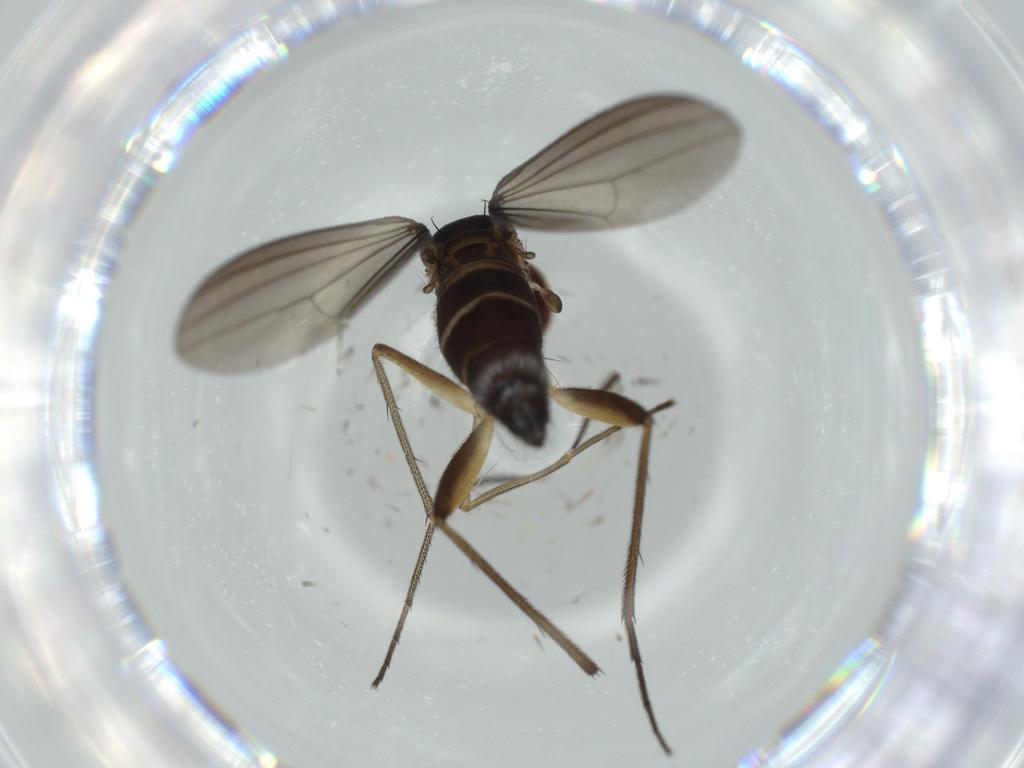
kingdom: Animalia
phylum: Arthropoda
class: Insecta
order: Diptera
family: Dolichopodidae
